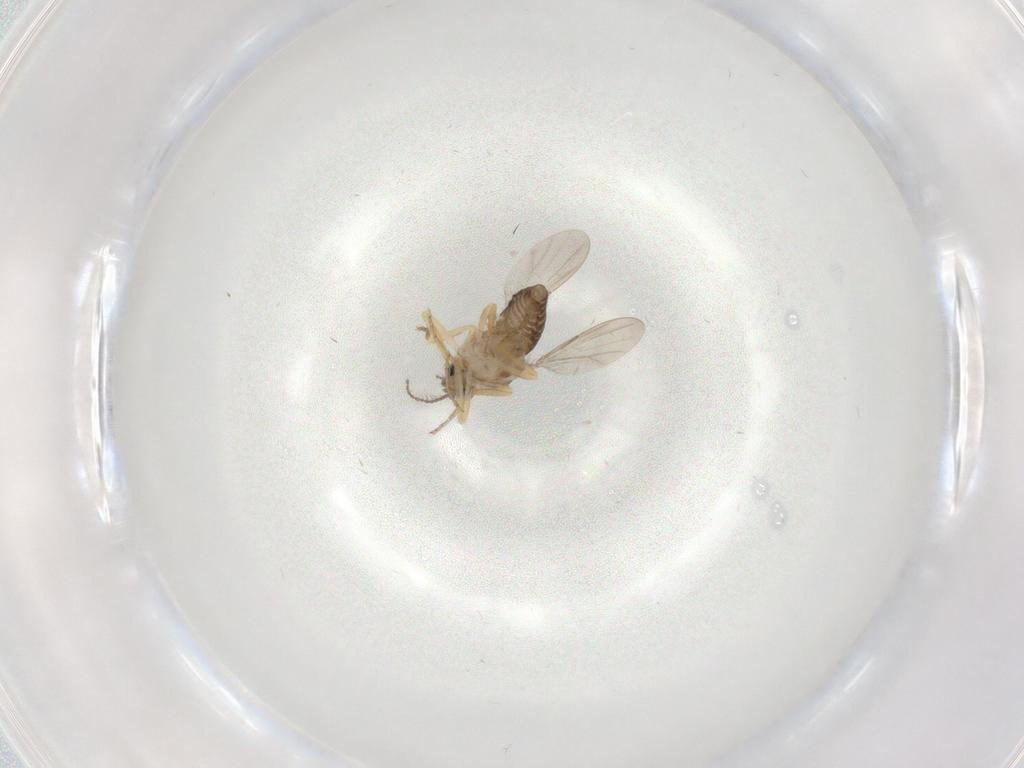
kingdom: Animalia
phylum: Arthropoda
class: Insecta
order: Diptera
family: Ceratopogonidae
